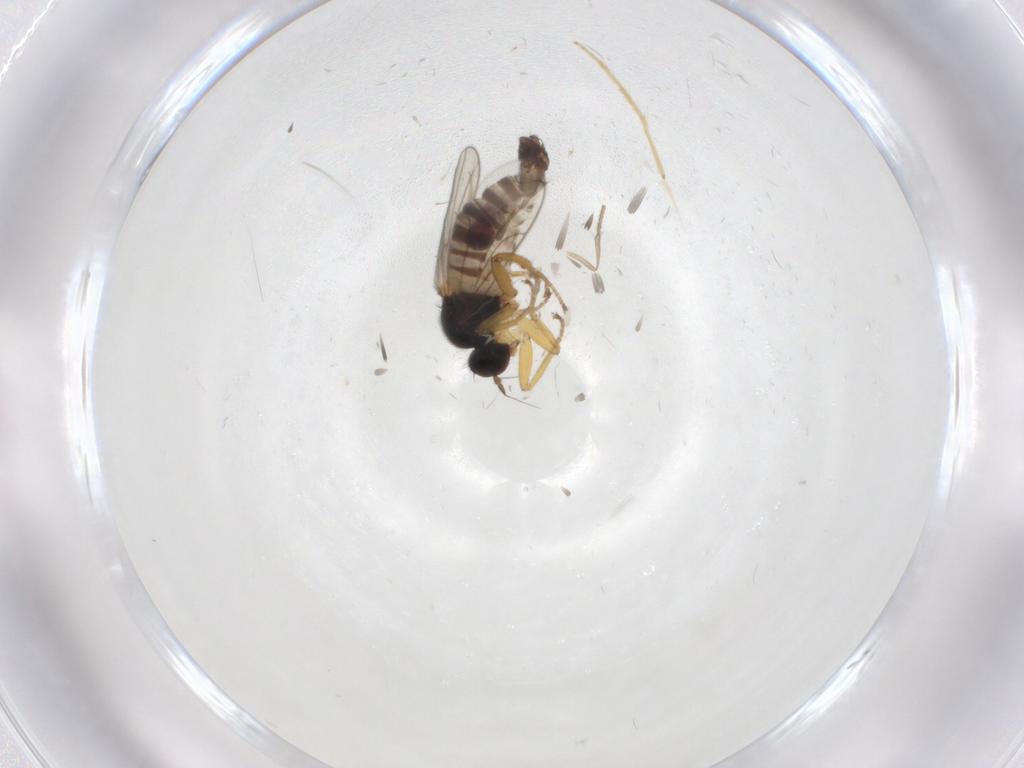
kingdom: Animalia
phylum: Arthropoda
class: Insecta
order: Diptera
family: Hybotidae
